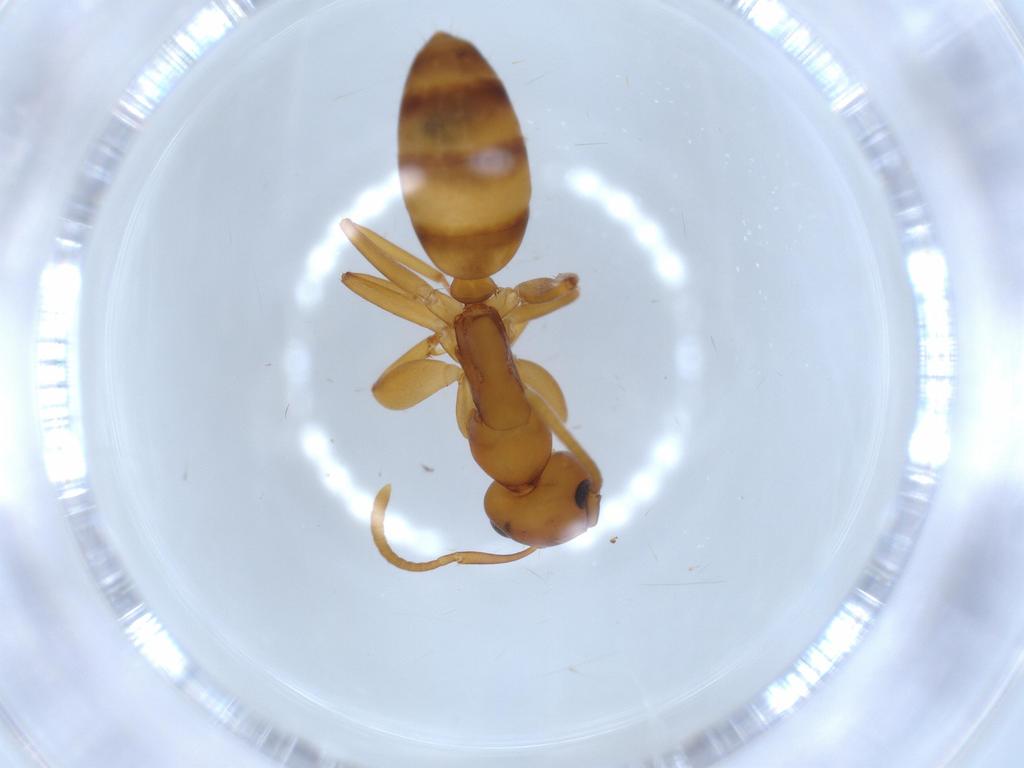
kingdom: Animalia
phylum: Arthropoda
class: Insecta
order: Hymenoptera
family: Formicidae
